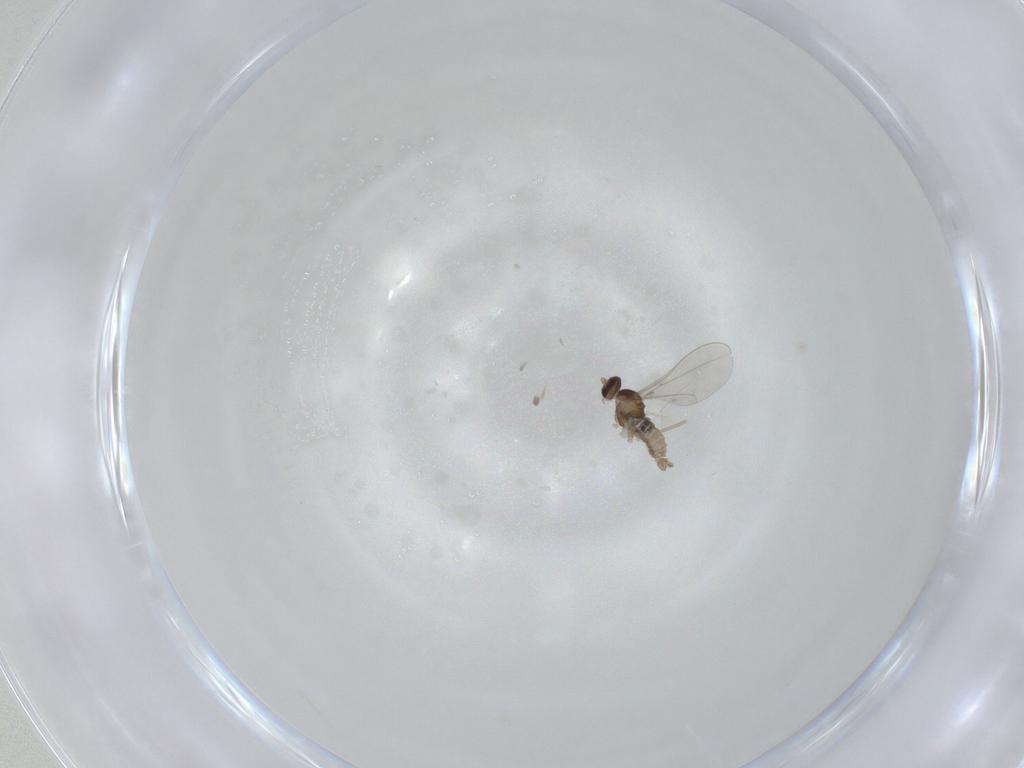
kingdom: Animalia
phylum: Arthropoda
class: Insecta
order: Diptera
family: Cecidomyiidae
